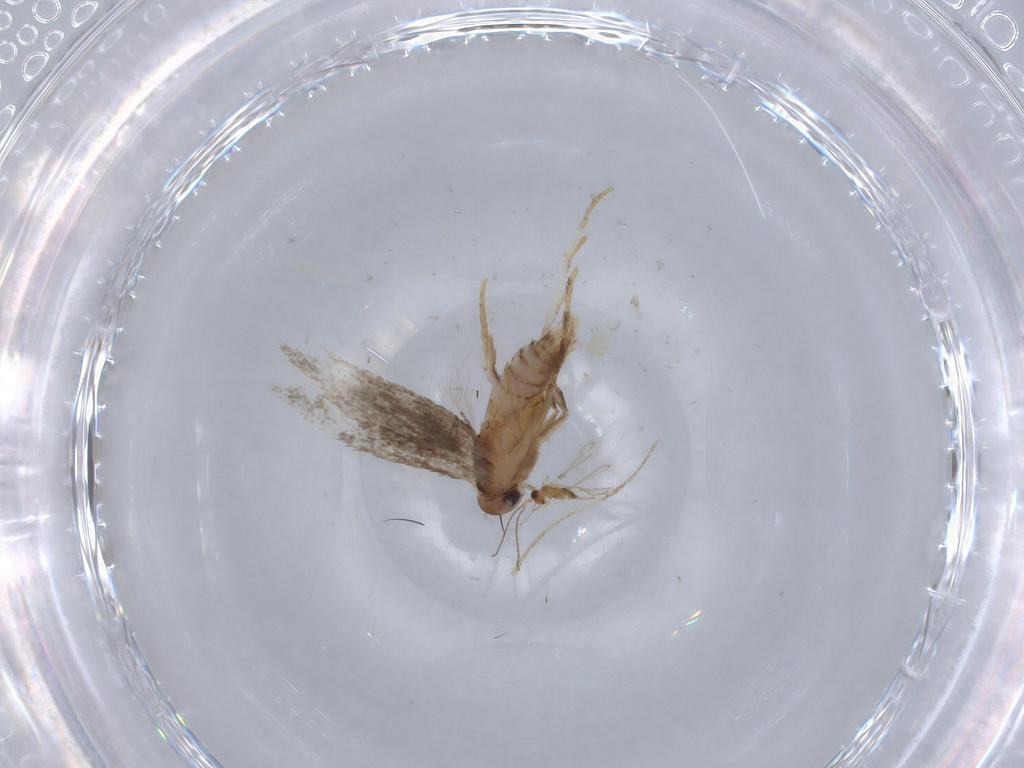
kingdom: Animalia
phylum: Arthropoda
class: Insecta
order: Lepidoptera
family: Elachistidae
